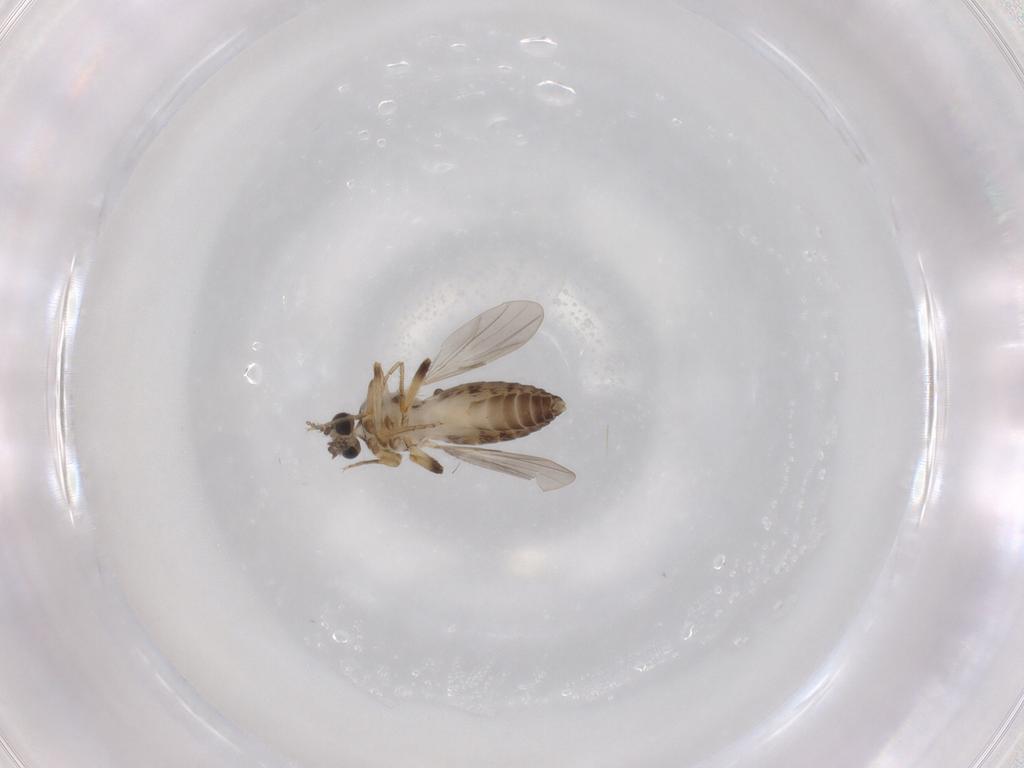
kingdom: Animalia
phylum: Arthropoda
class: Insecta
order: Diptera
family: Ceratopogonidae
